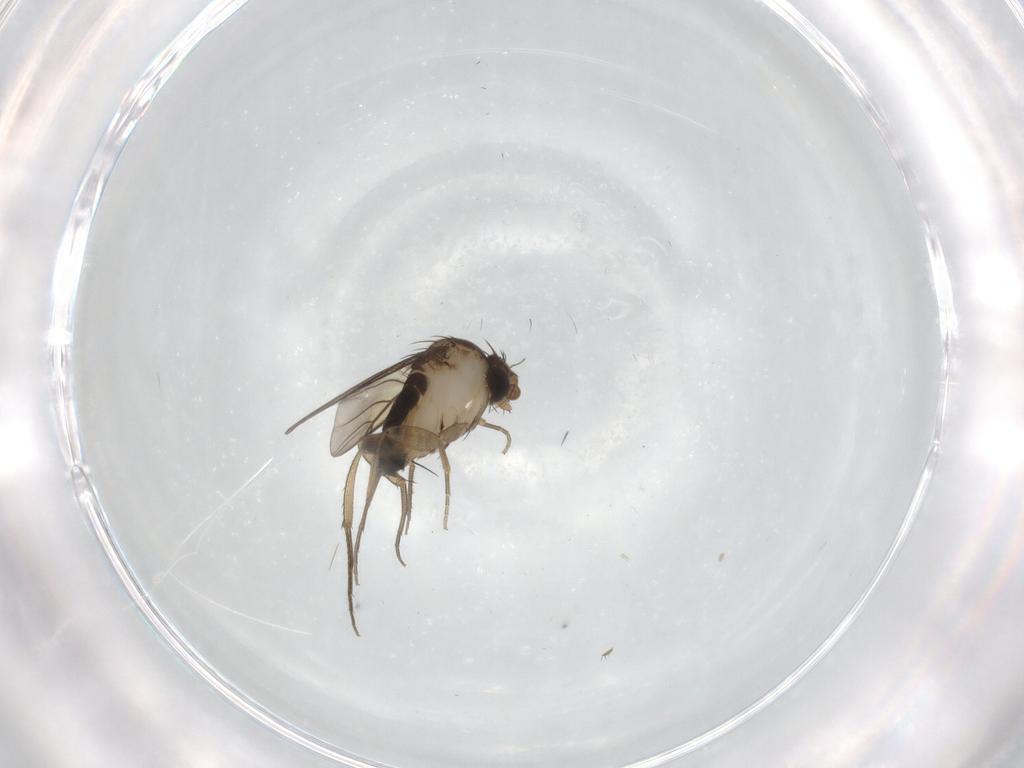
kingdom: Animalia
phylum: Arthropoda
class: Insecta
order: Diptera
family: Phoridae
